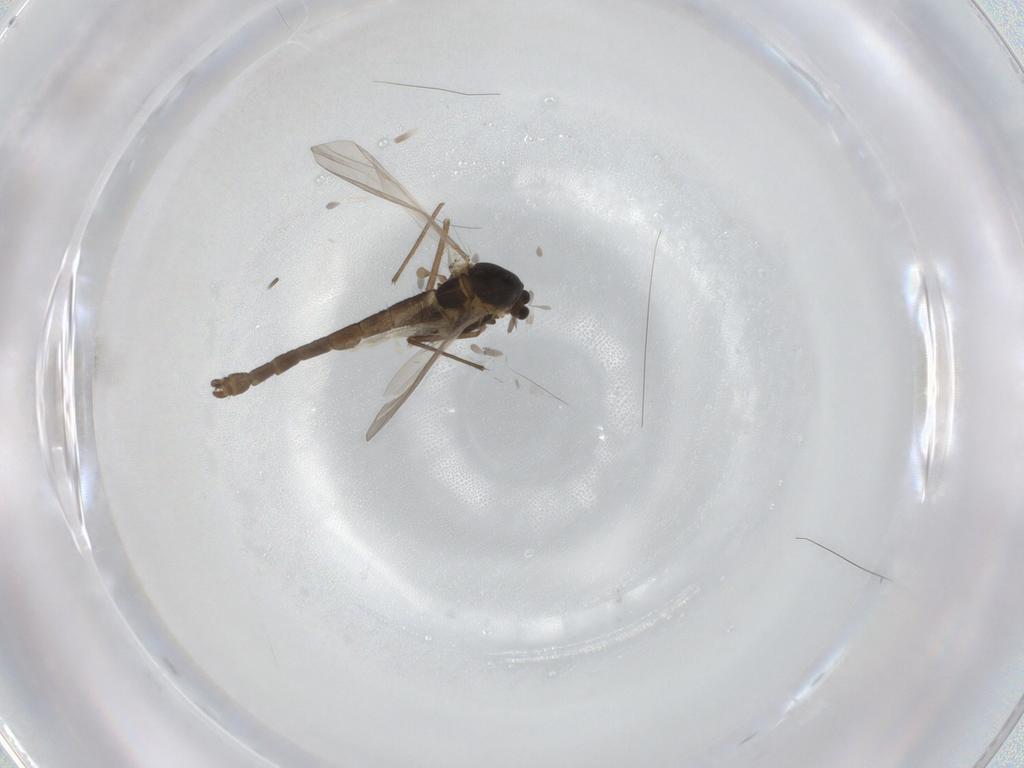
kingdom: Animalia
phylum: Arthropoda
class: Insecta
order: Diptera
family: Chironomidae
